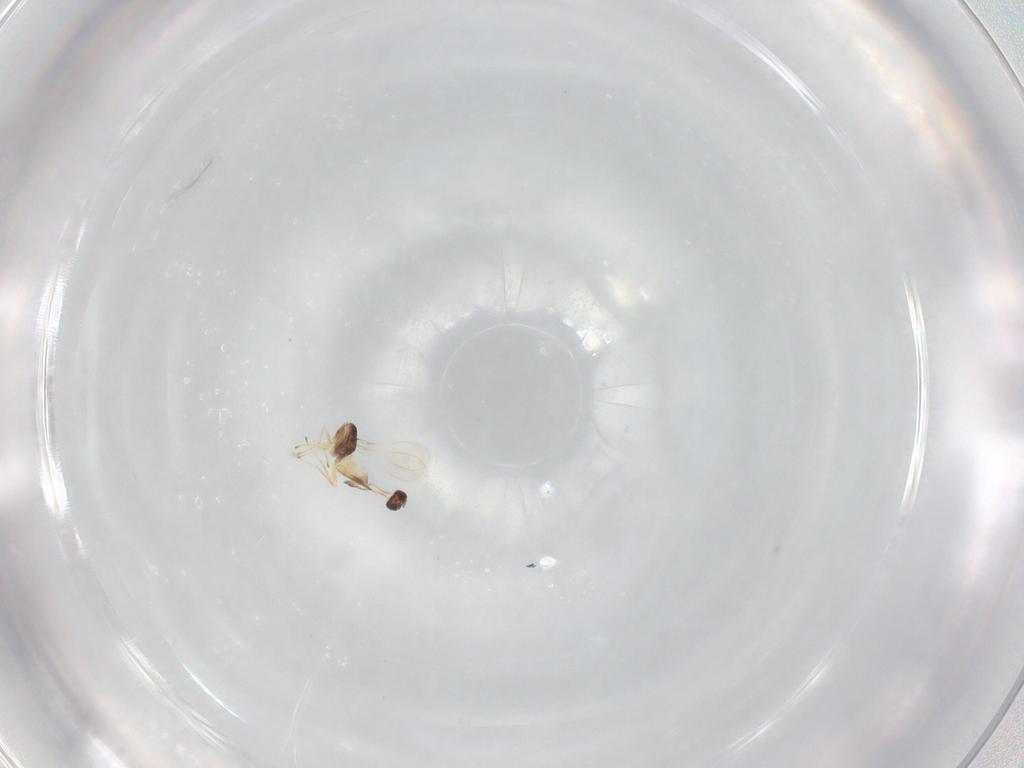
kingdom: Animalia
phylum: Arthropoda
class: Insecta
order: Hymenoptera
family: Mymaridae
